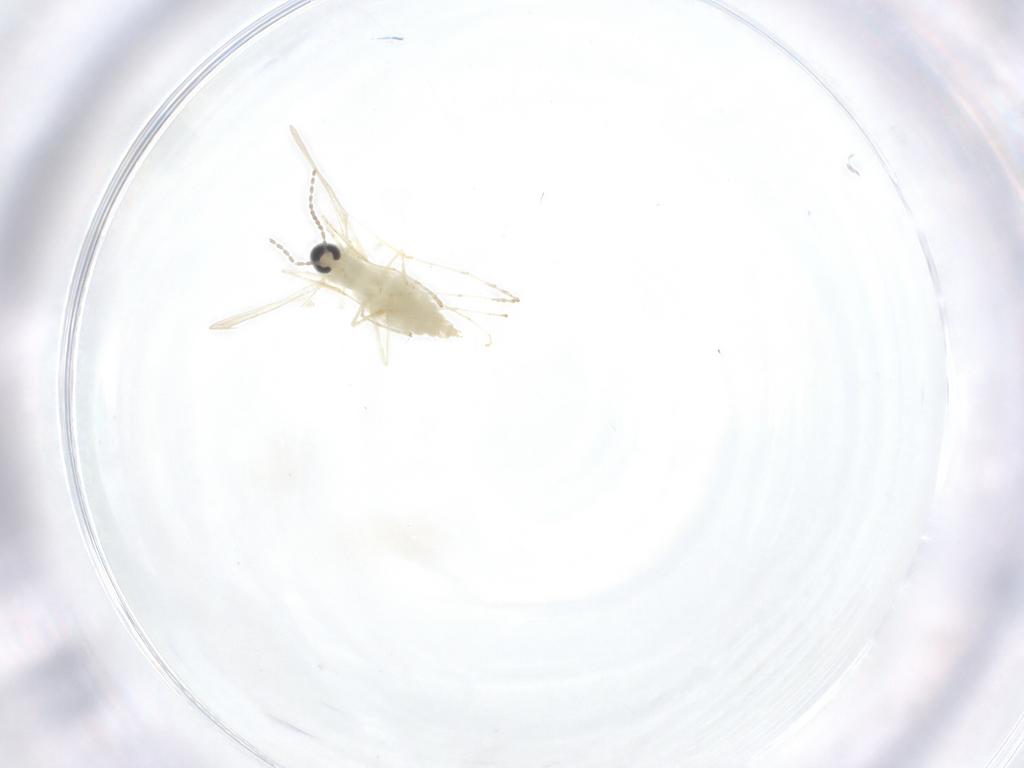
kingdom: Animalia
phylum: Arthropoda
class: Insecta
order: Diptera
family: Cecidomyiidae
